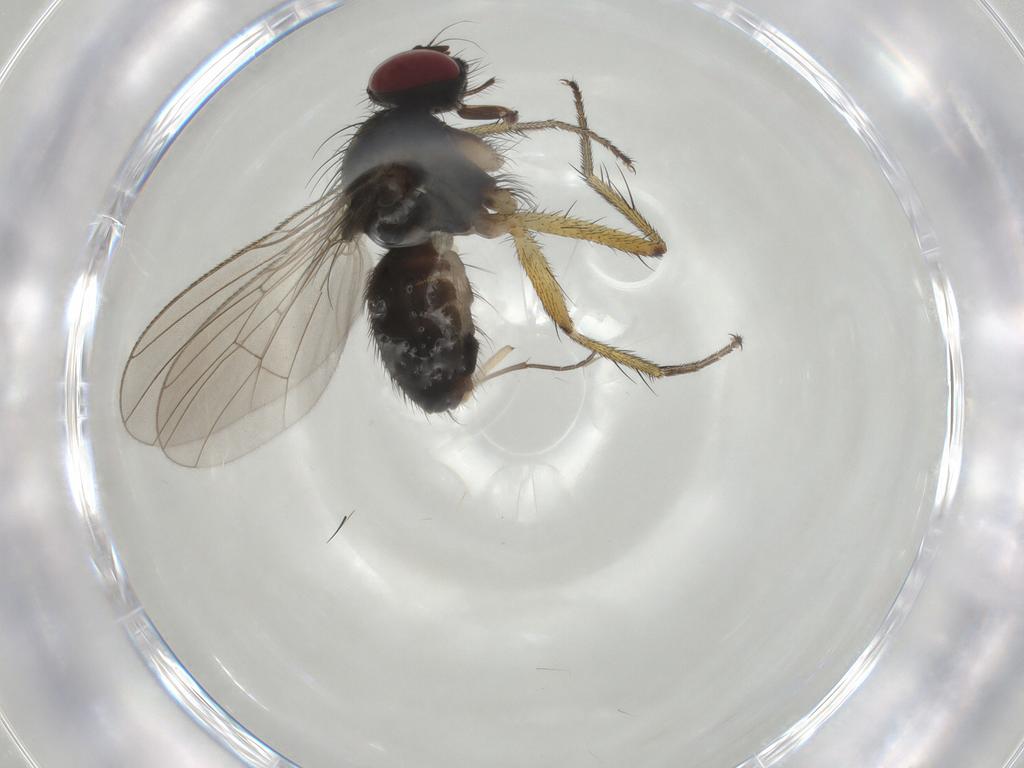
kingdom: Animalia
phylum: Arthropoda
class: Insecta
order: Diptera
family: Muscidae
